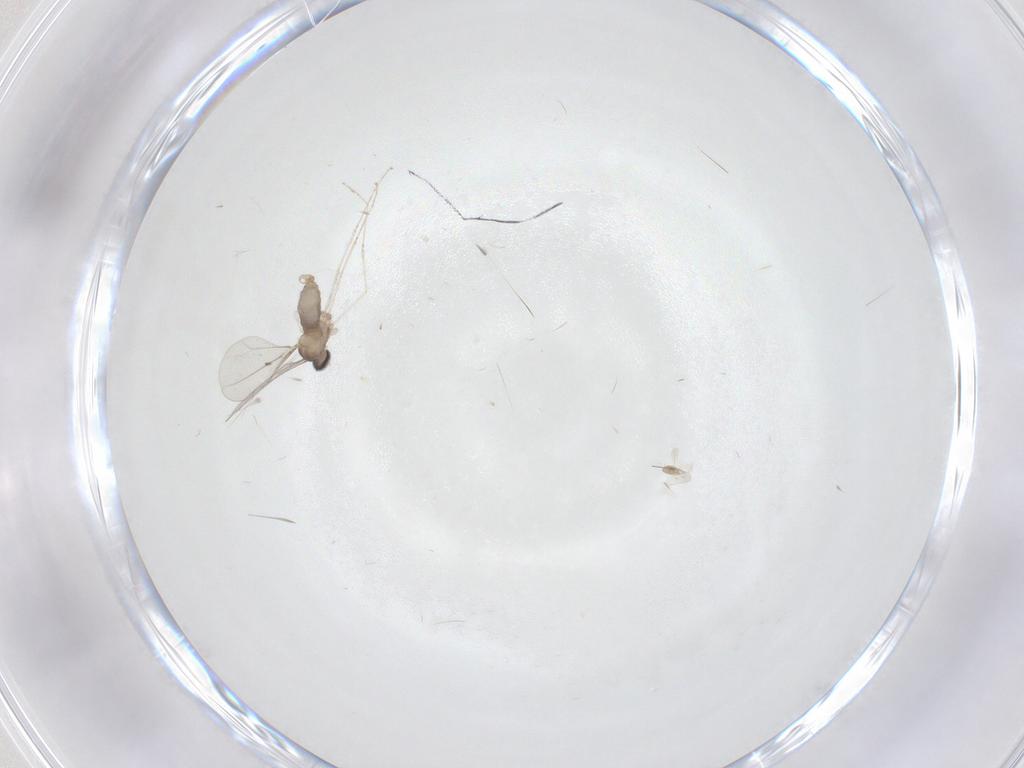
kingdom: Animalia
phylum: Arthropoda
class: Insecta
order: Diptera
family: Cecidomyiidae
